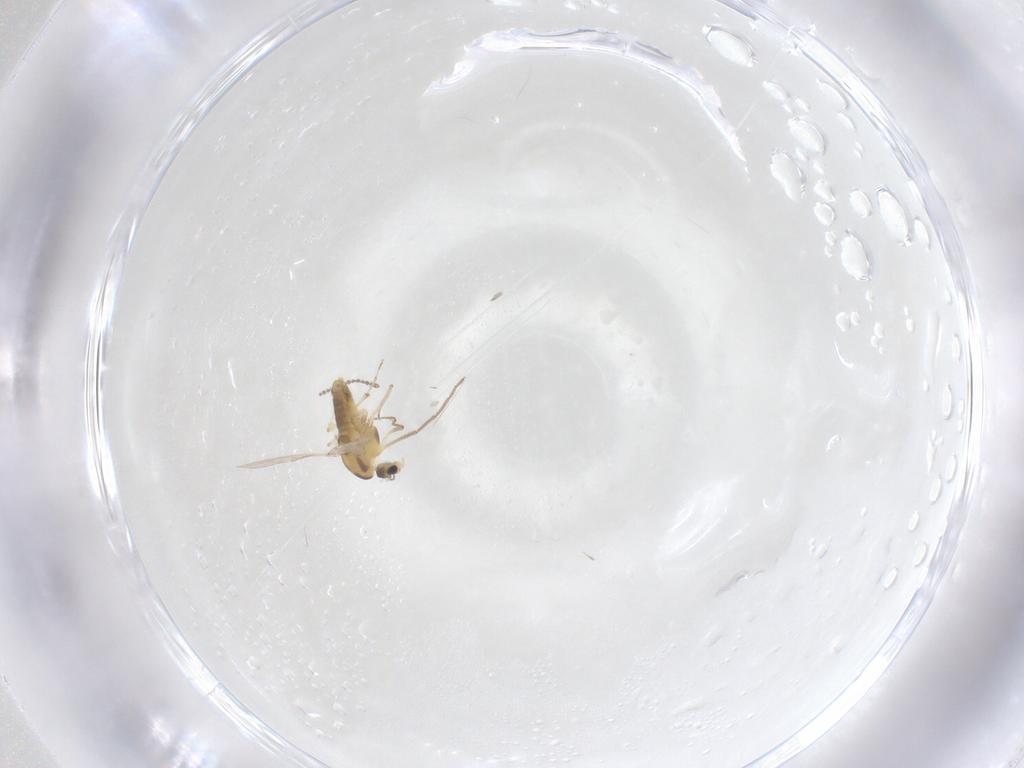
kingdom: Animalia
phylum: Arthropoda
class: Insecta
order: Diptera
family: Chironomidae
